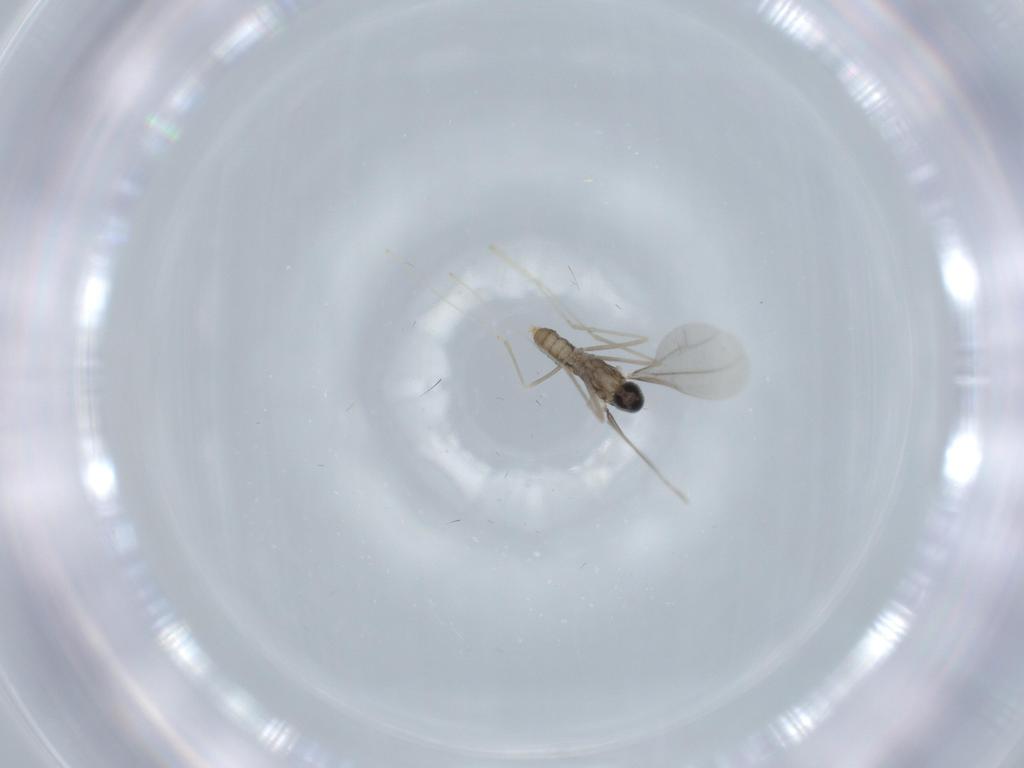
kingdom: Animalia
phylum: Arthropoda
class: Insecta
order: Diptera
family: Cecidomyiidae
